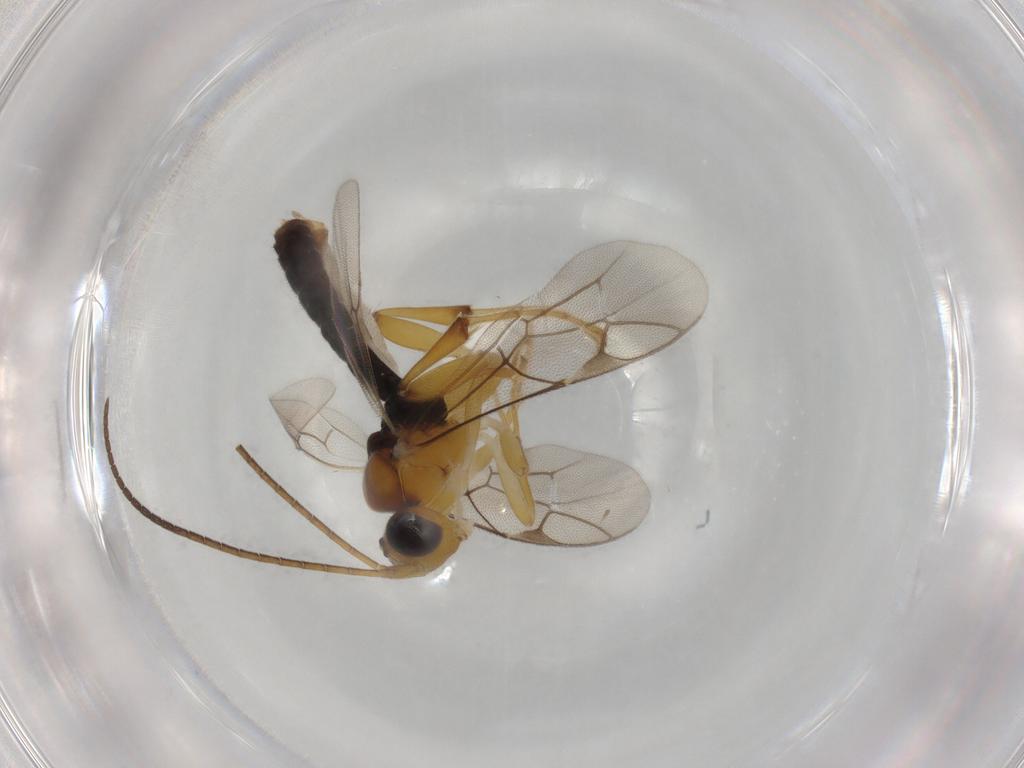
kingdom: Animalia
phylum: Arthropoda
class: Insecta
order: Hymenoptera
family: Ichneumonidae
